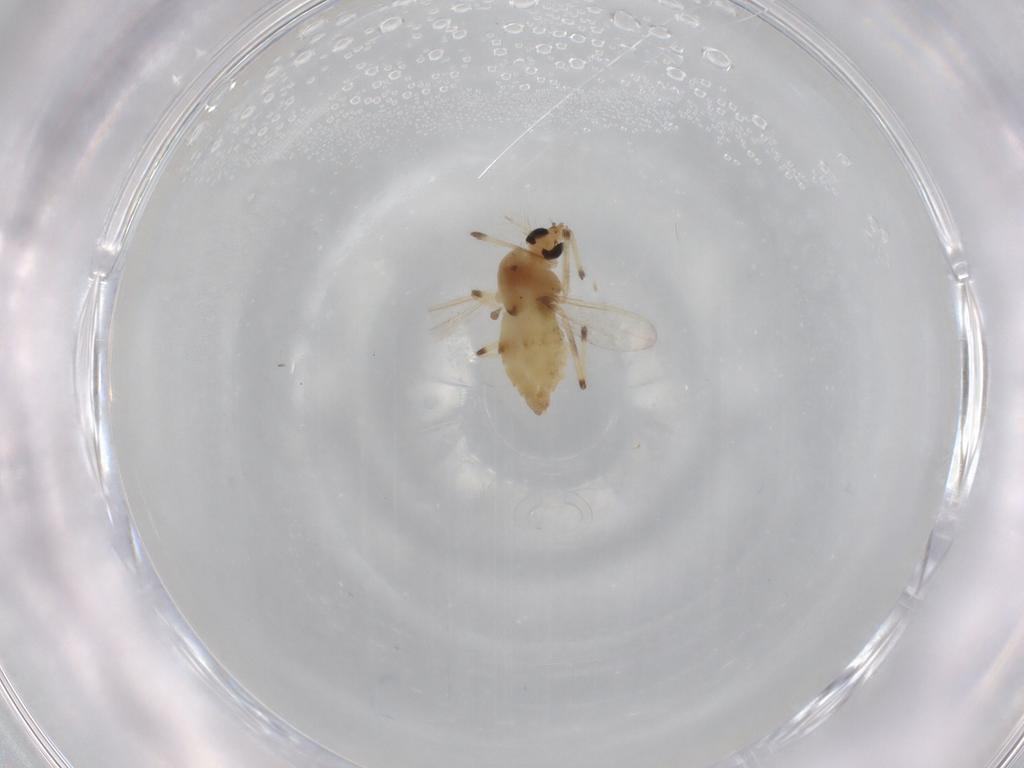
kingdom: Animalia
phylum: Arthropoda
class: Insecta
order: Diptera
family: Chironomidae
